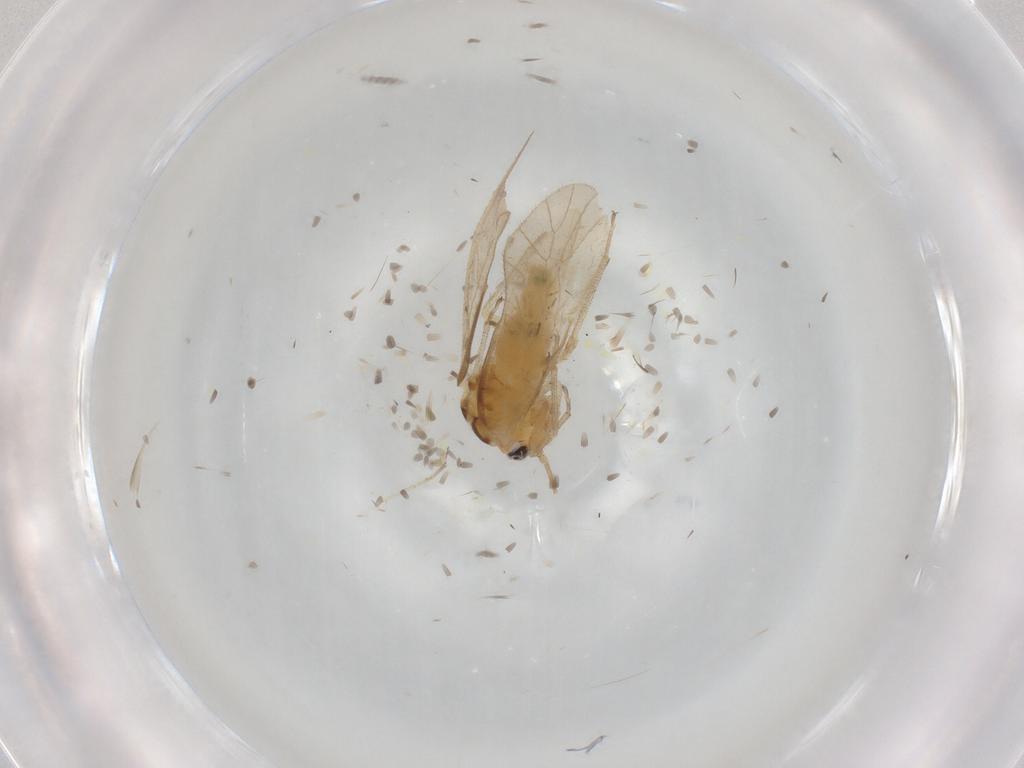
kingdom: Animalia
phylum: Arthropoda
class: Insecta
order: Psocodea
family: Caeciliusidae
